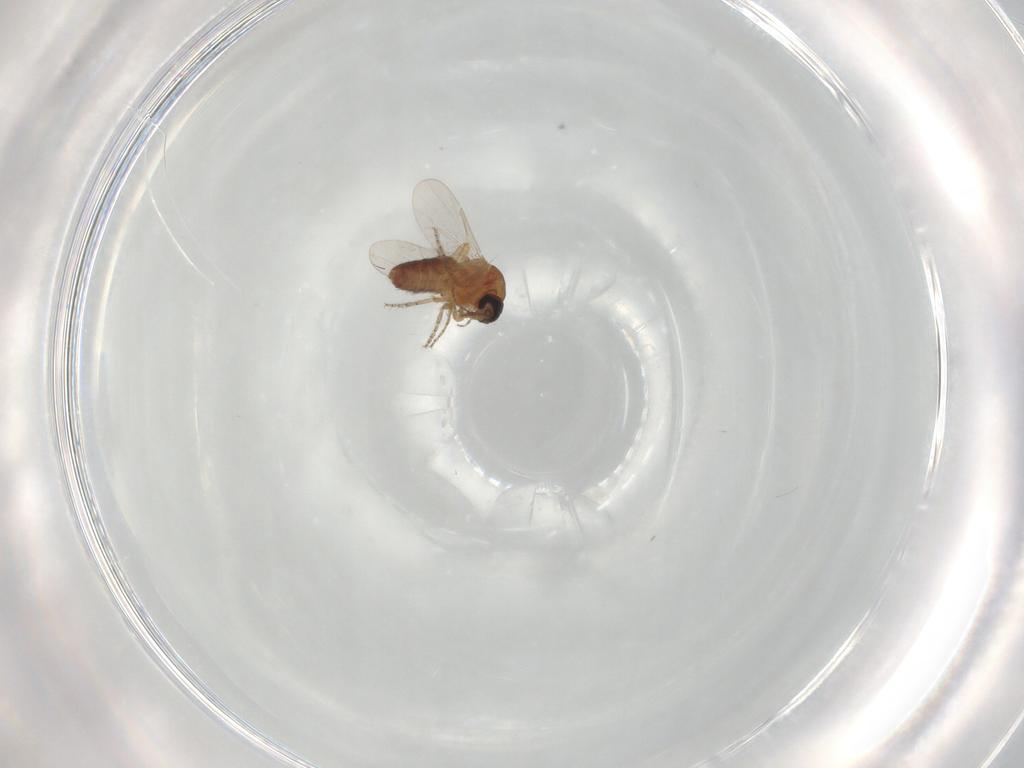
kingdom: Animalia
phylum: Arthropoda
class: Insecta
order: Diptera
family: Ceratopogonidae
